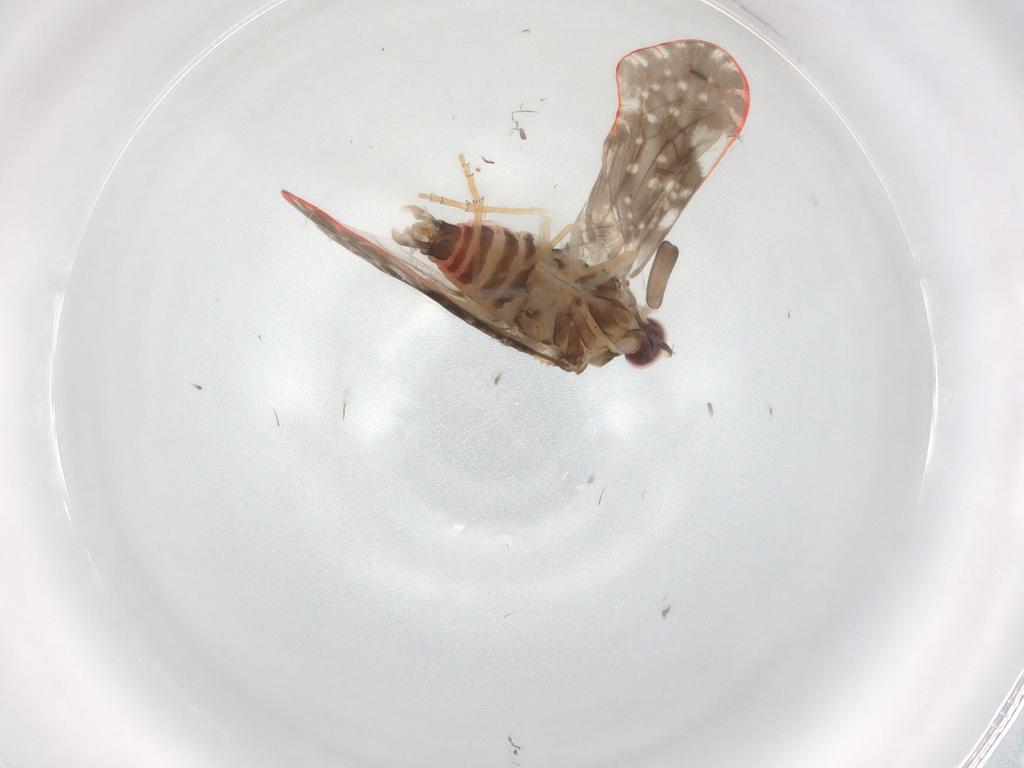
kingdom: Animalia
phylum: Arthropoda
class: Insecta
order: Hemiptera
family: Derbidae
